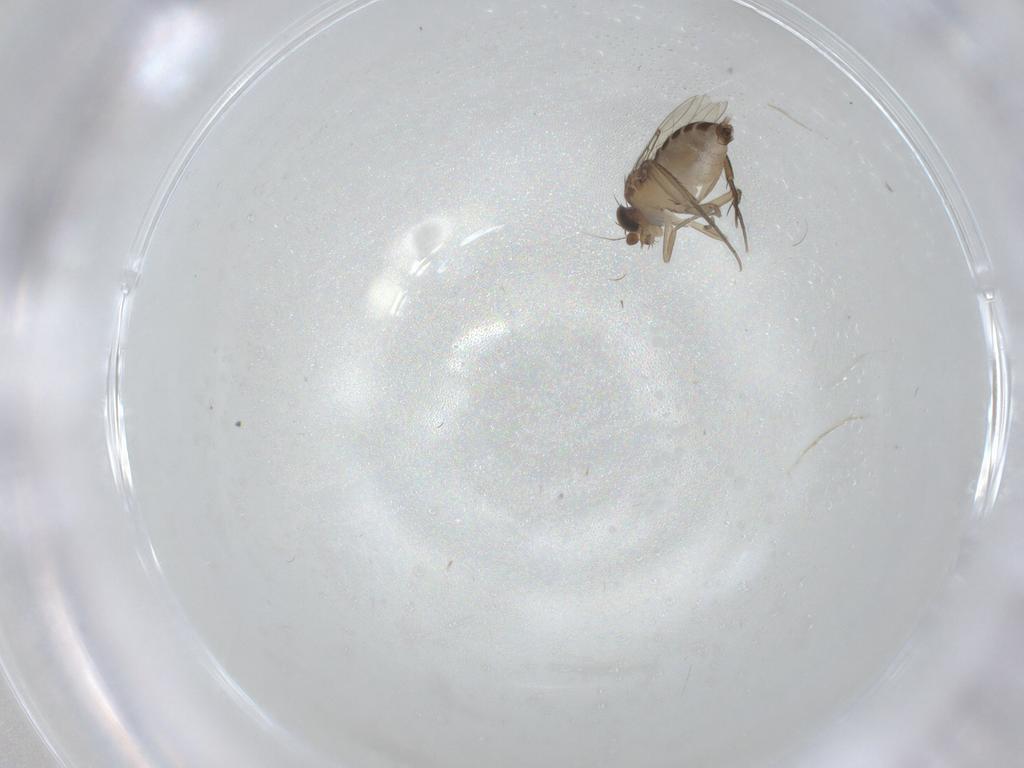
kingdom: Animalia
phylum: Arthropoda
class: Insecta
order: Diptera
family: Phoridae
